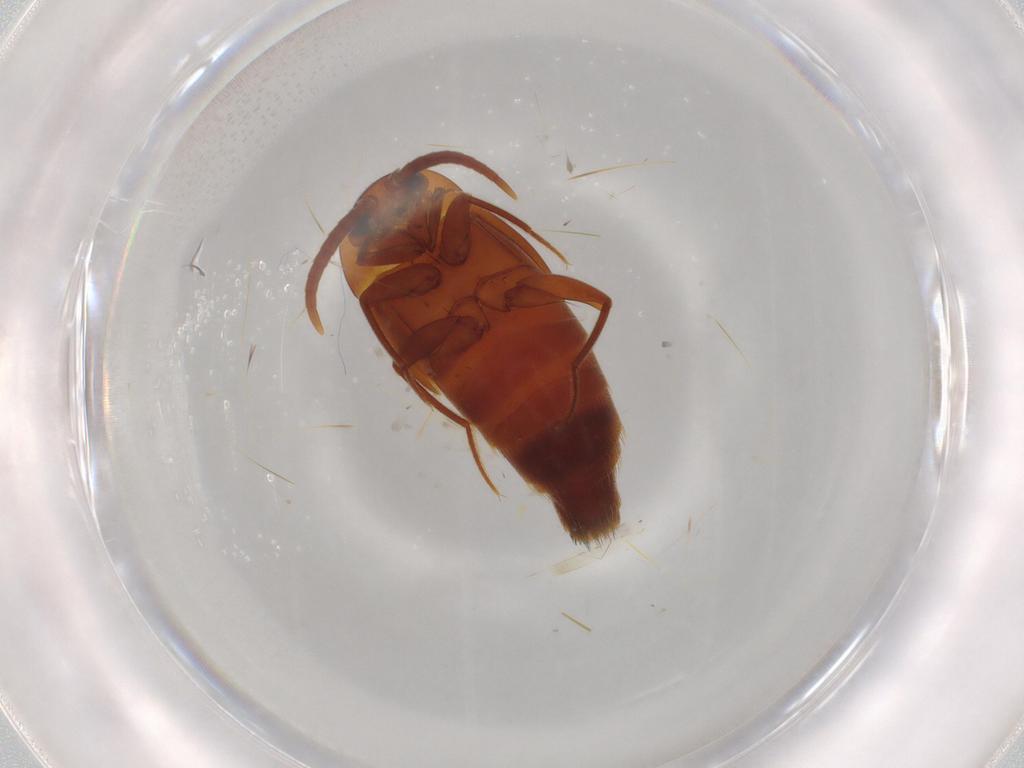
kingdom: Animalia
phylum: Arthropoda
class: Insecta
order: Coleoptera
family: Staphylinidae
